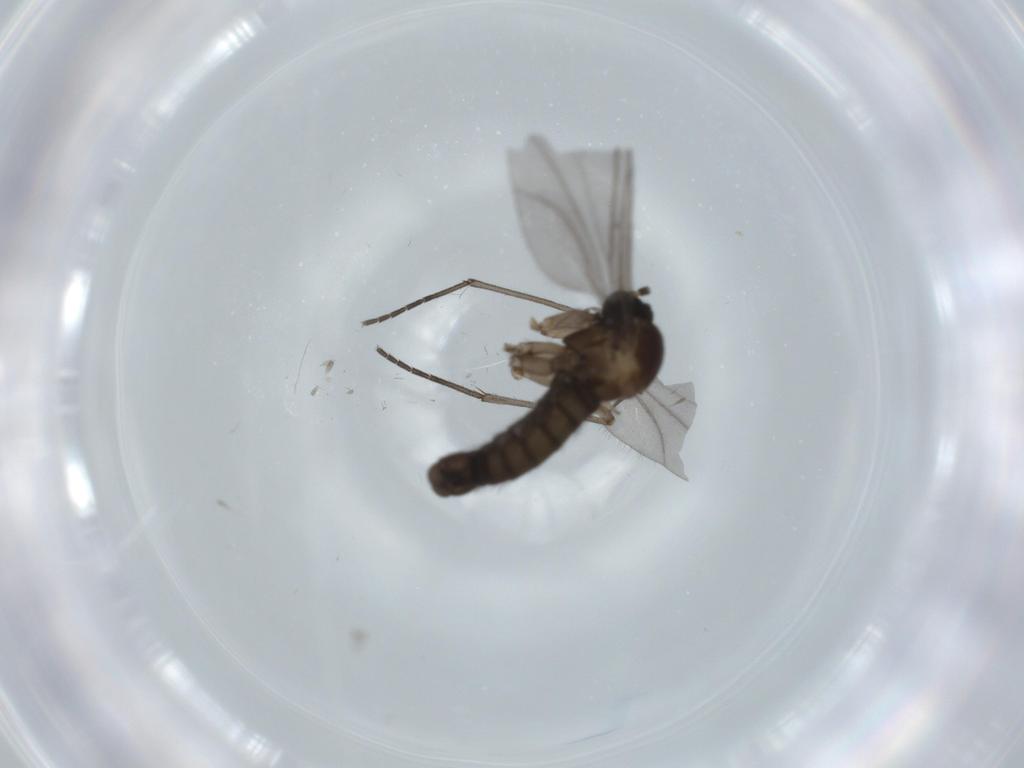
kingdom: Animalia
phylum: Arthropoda
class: Insecta
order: Diptera
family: Sciaridae
